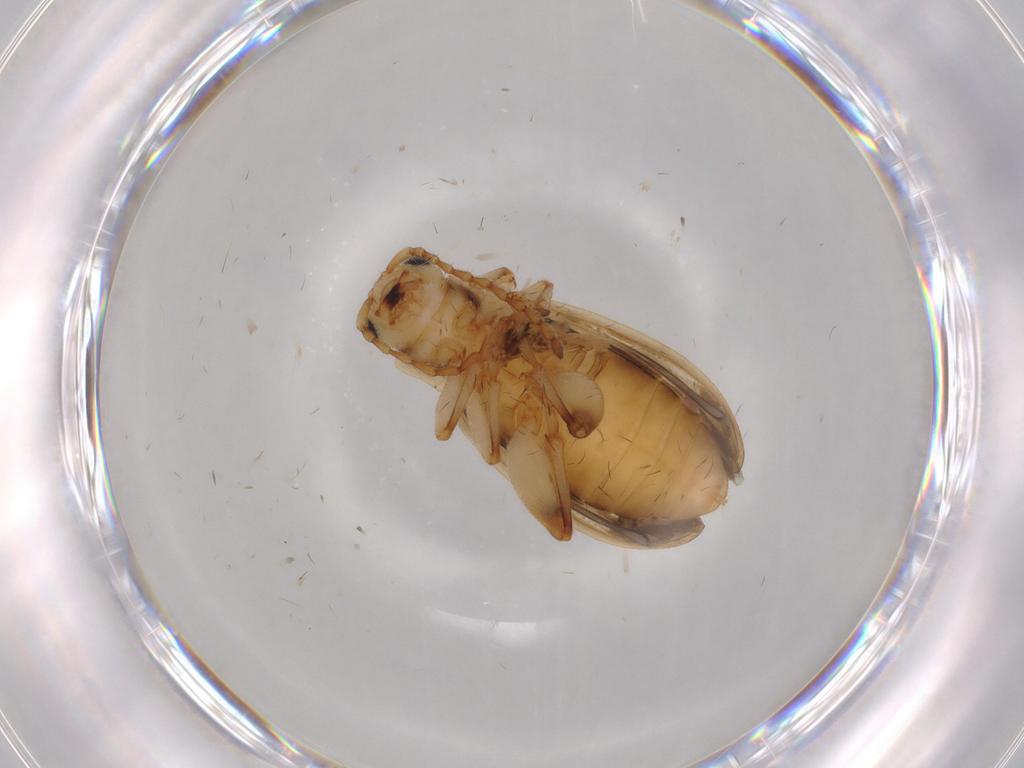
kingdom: Animalia
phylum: Arthropoda
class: Insecta
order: Coleoptera
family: Chrysomelidae
